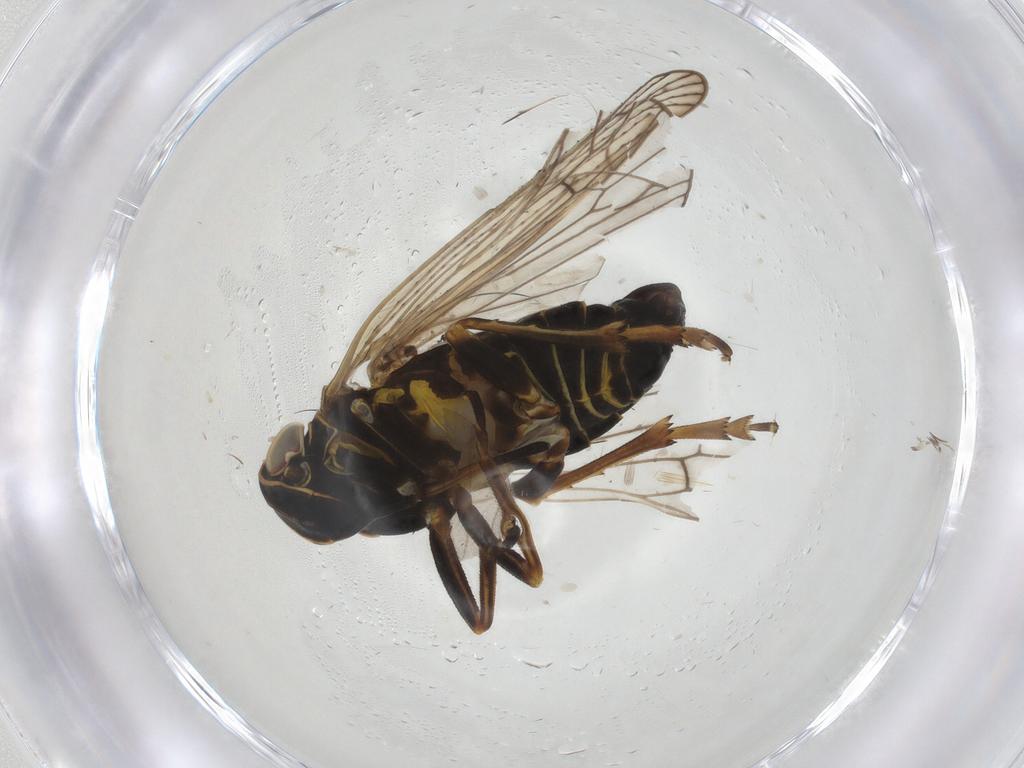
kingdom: Animalia
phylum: Arthropoda
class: Insecta
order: Hemiptera
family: Cixiidae
